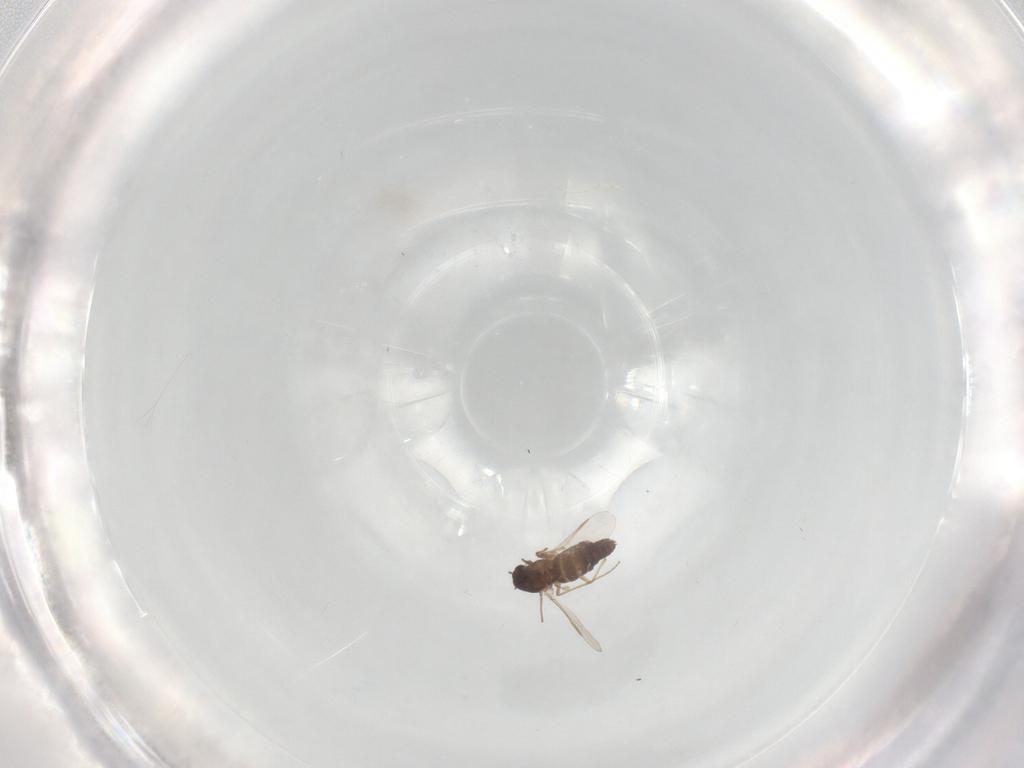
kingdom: Animalia
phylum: Arthropoda
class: Insecta
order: Diptera
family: Chironomidae
